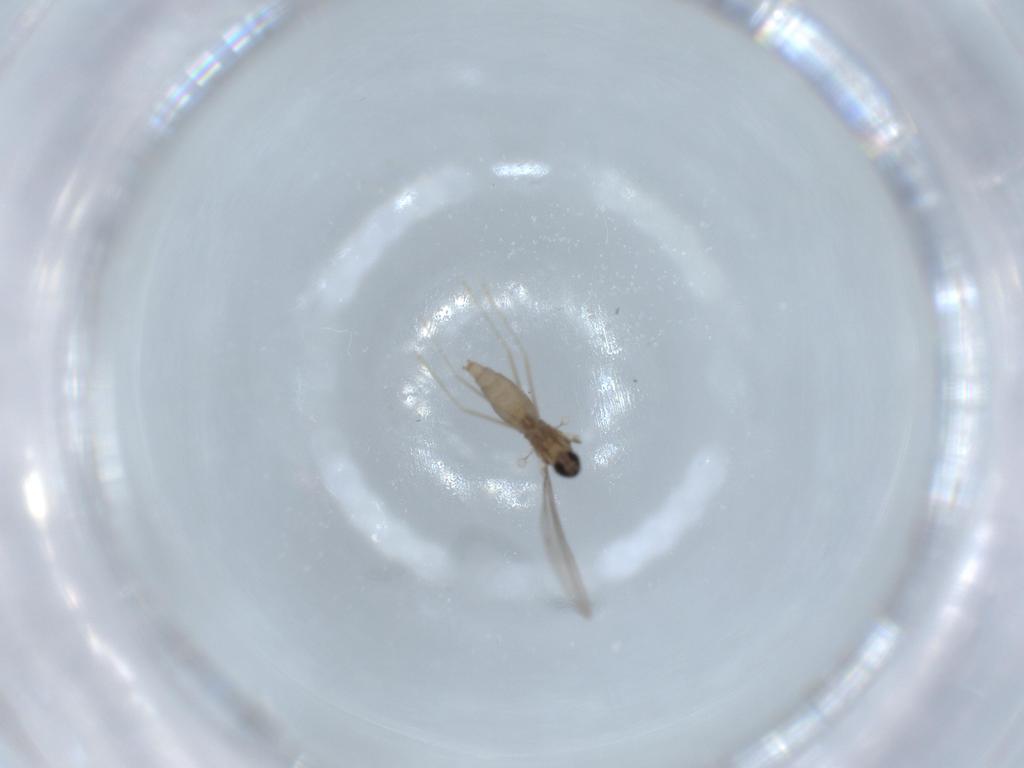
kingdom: Animalia
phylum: Arthropoda
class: Insecta
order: Diptera
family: Cecidomyiidae
